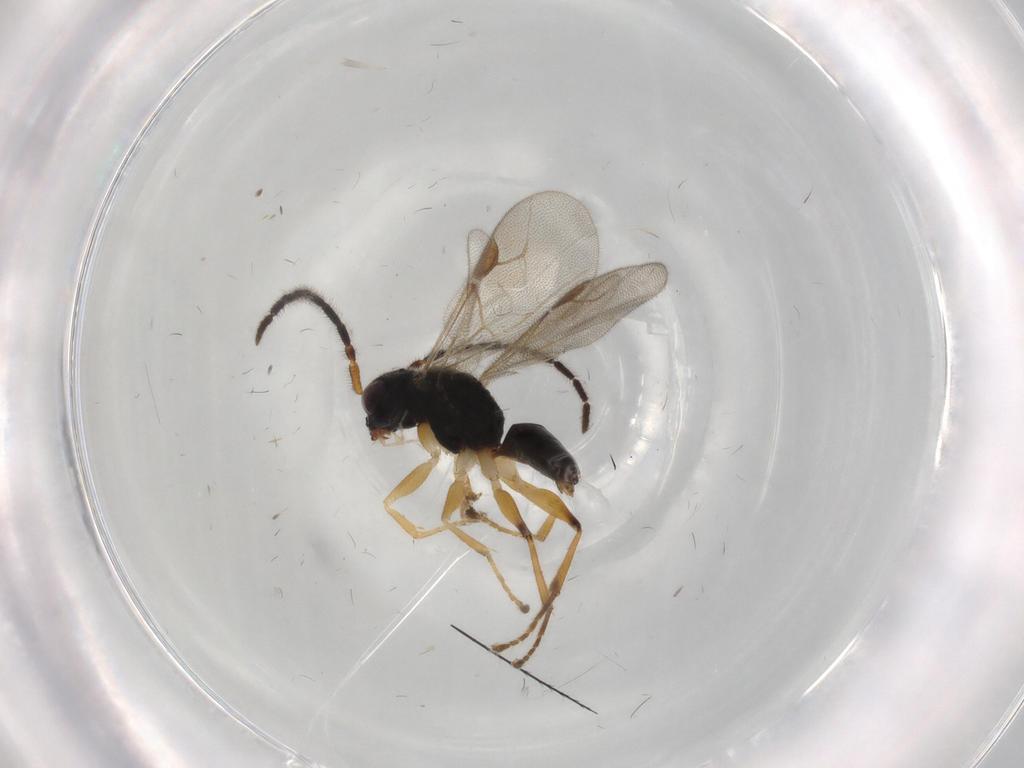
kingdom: Animalia
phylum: Arthropoda
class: Insecta
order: Hymenoptera
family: Dryinidae
